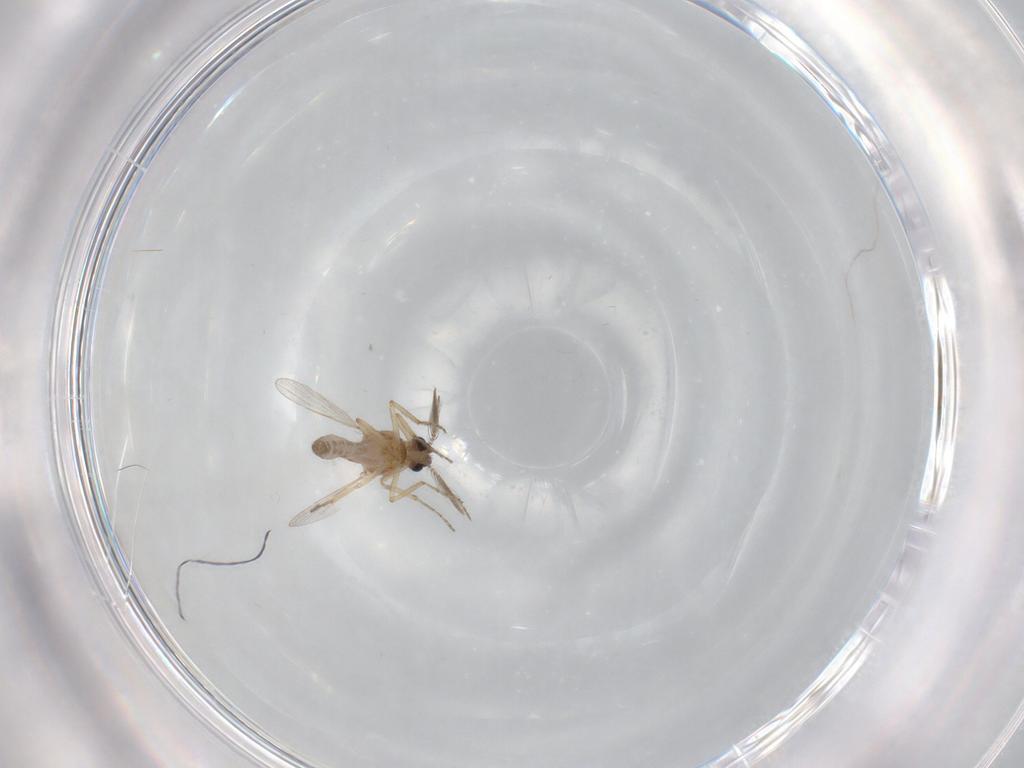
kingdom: Animalia
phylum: Arthropoda
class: Insecta
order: Diptera
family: Ceratopogonidae
